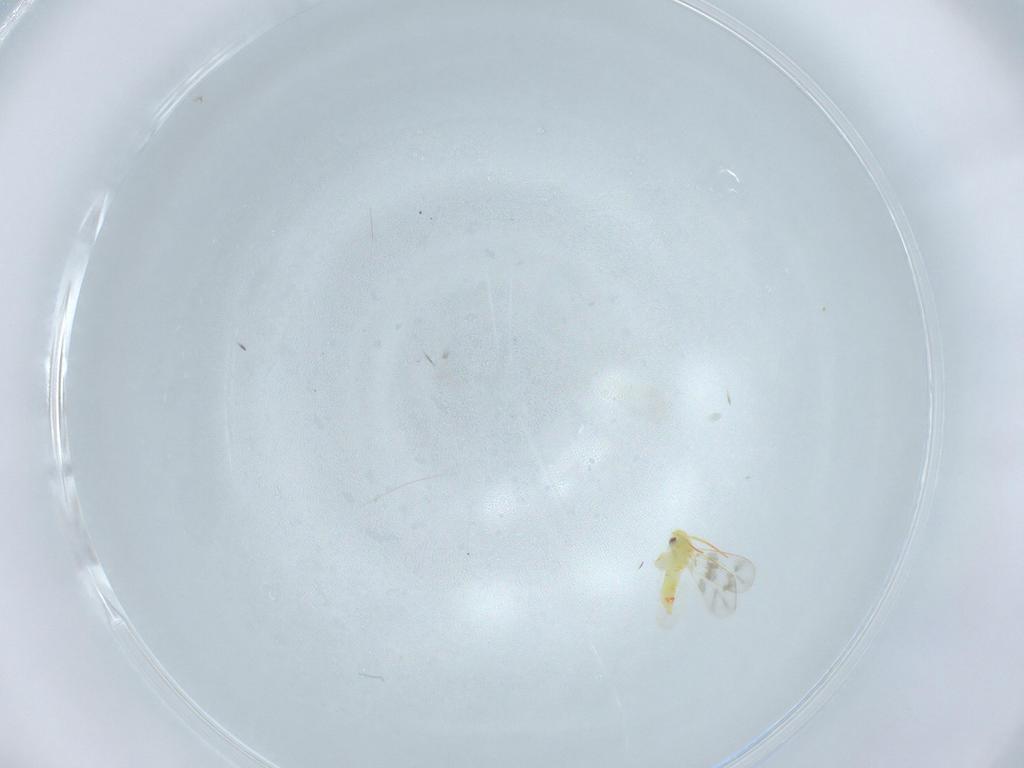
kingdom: Animalia
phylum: Arthropoda
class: Insecta
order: Hemiptera
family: Aleyrodidae
